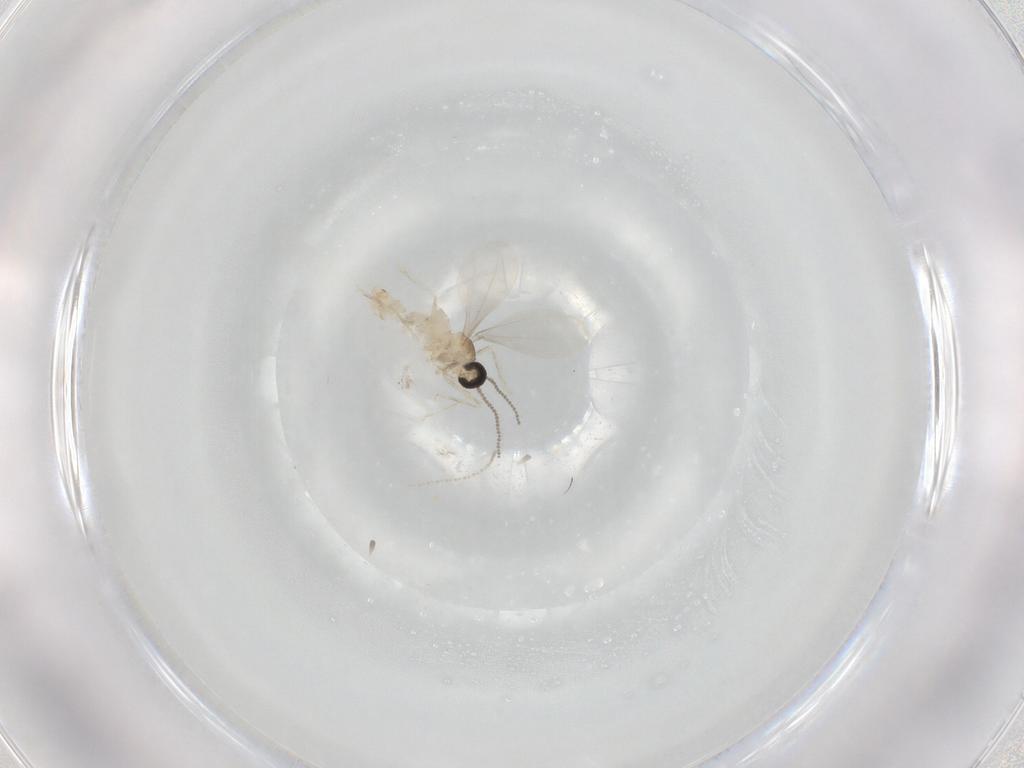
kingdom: Animalia
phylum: Arthropoda
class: Insecta
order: Diptera
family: Cecidomyiidae
